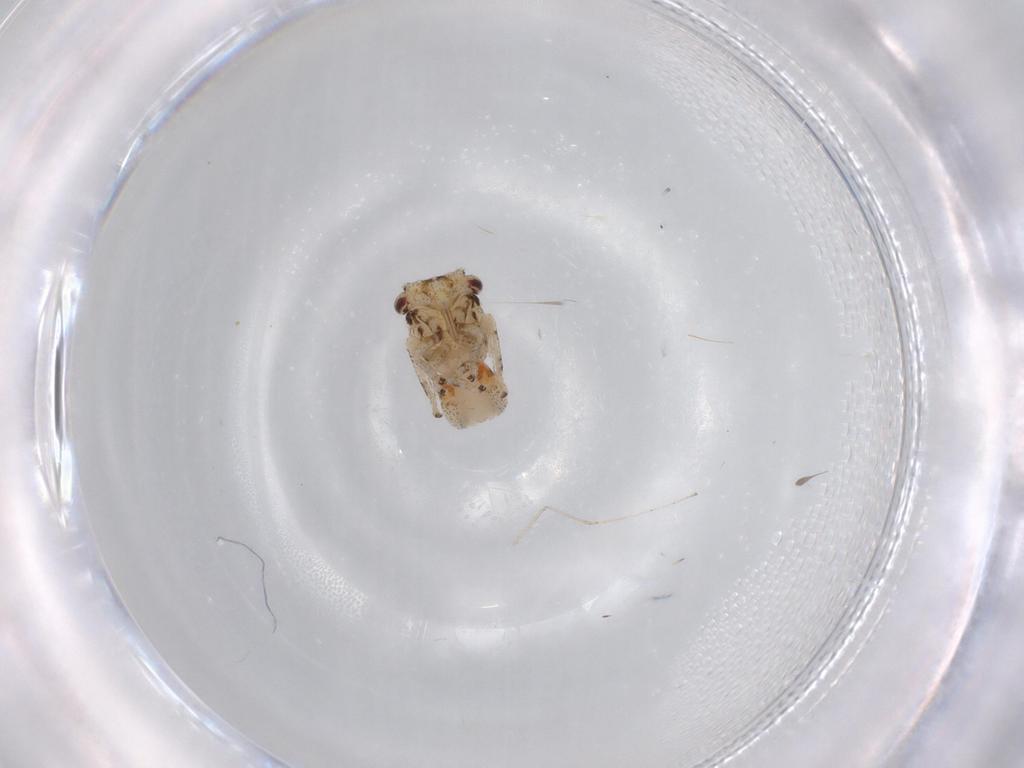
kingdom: Animalia
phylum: Arthropoda
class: Insecta
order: Hemiptera
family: Cicadellidae
